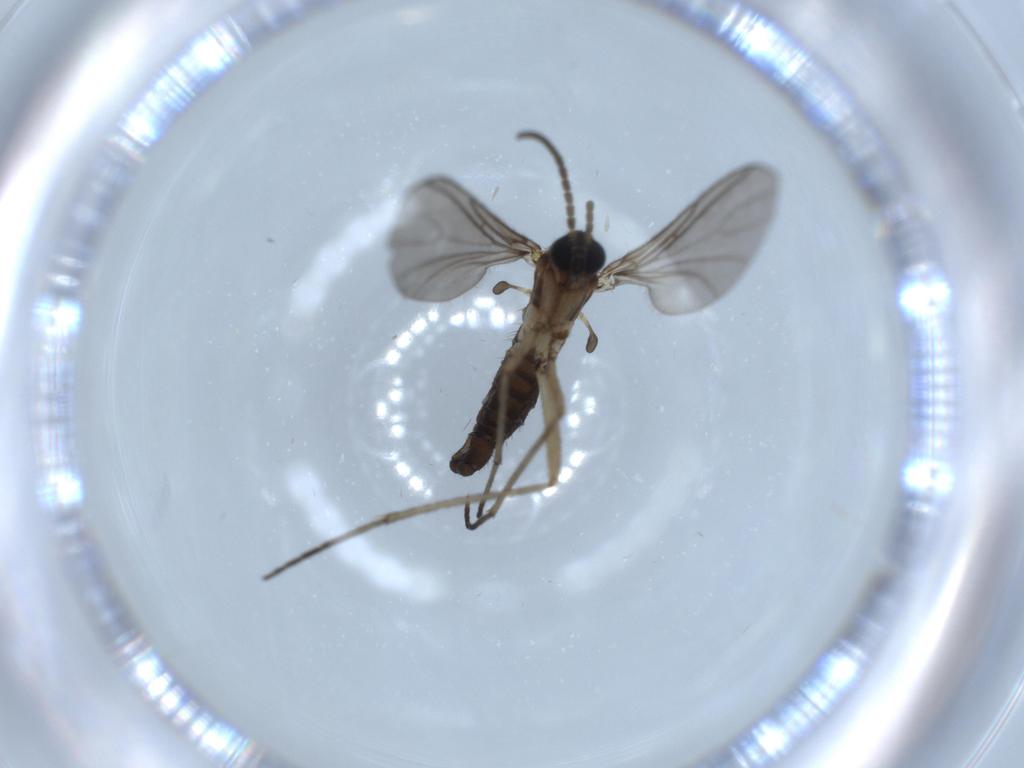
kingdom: Animalia
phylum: Arthropoda
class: Insecta
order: Diptera
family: Sciaridae
